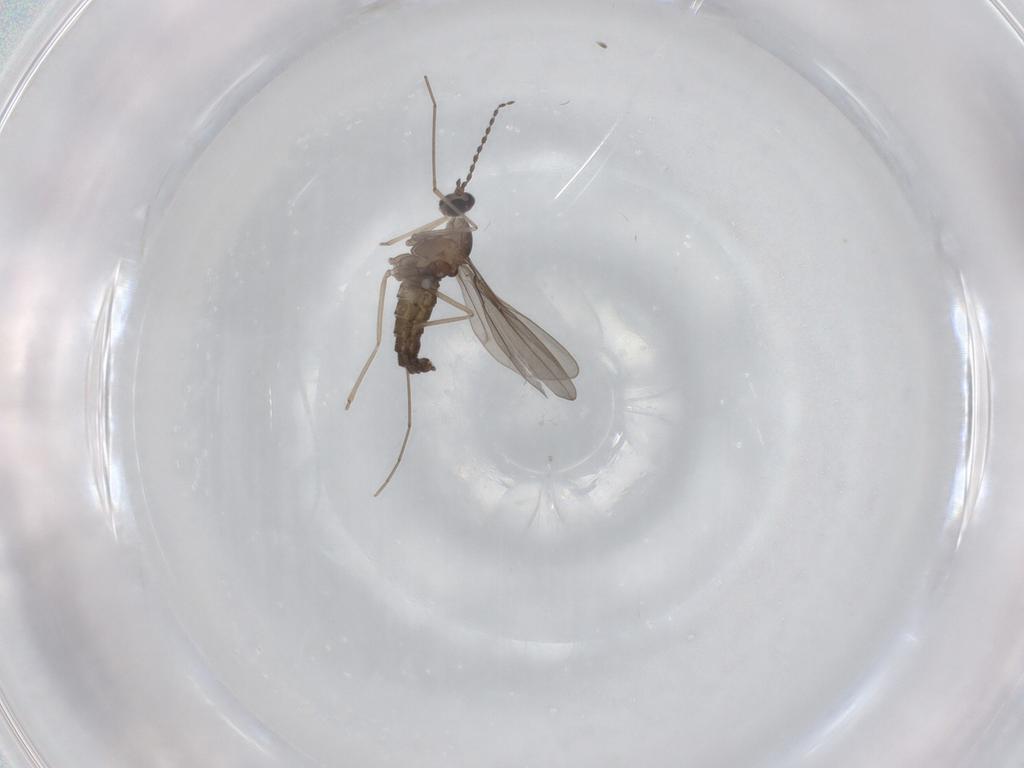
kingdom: Animalia
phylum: Arthropoda
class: Insecta
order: Diptera
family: Cecidomyiidae
